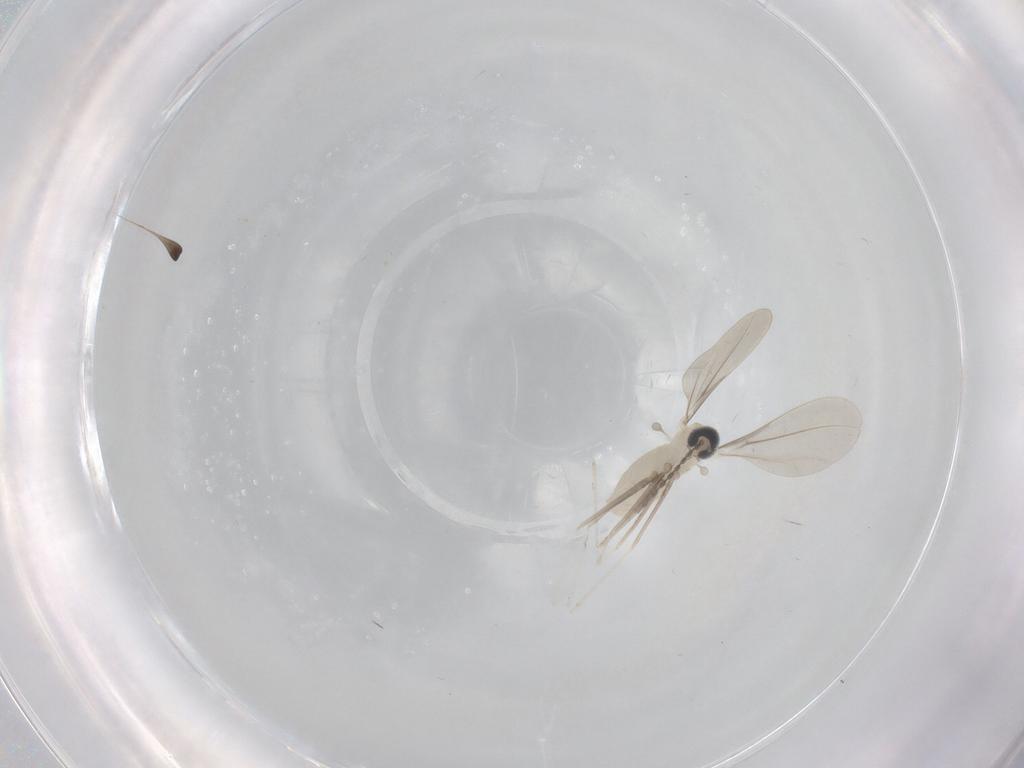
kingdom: Animalia
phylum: Arthropoda
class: Insecta
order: Diptera
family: Cecidomyiidae
